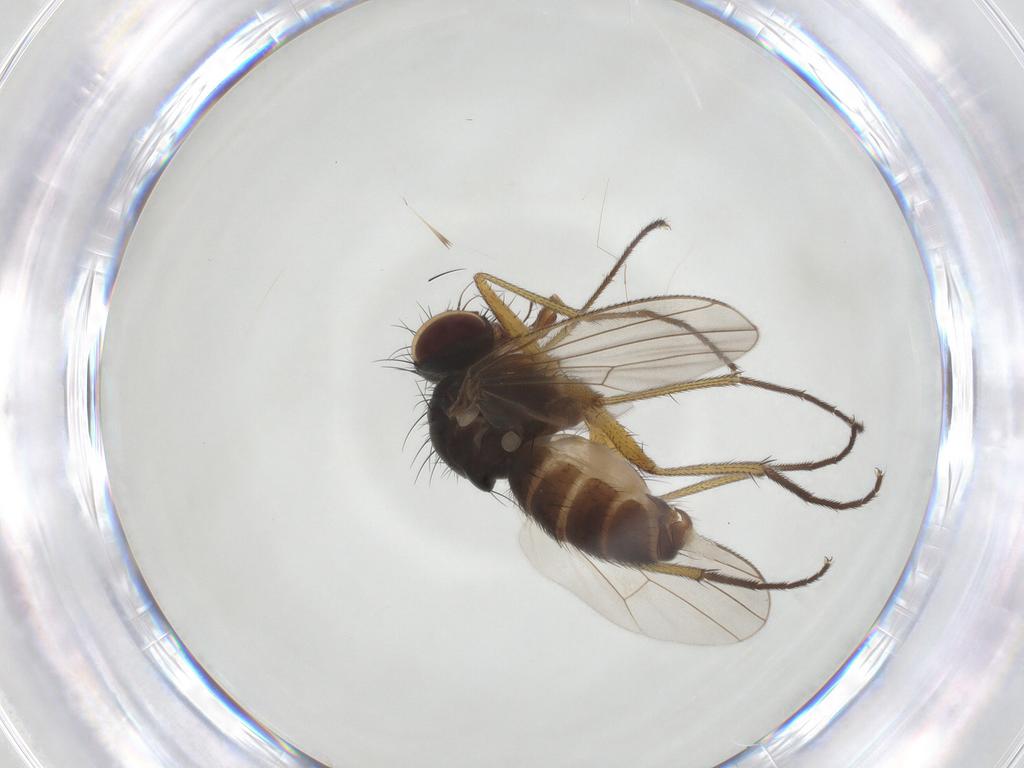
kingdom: Animalia
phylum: Arthropoda
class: Insecta
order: Diptera
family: Muscidae
